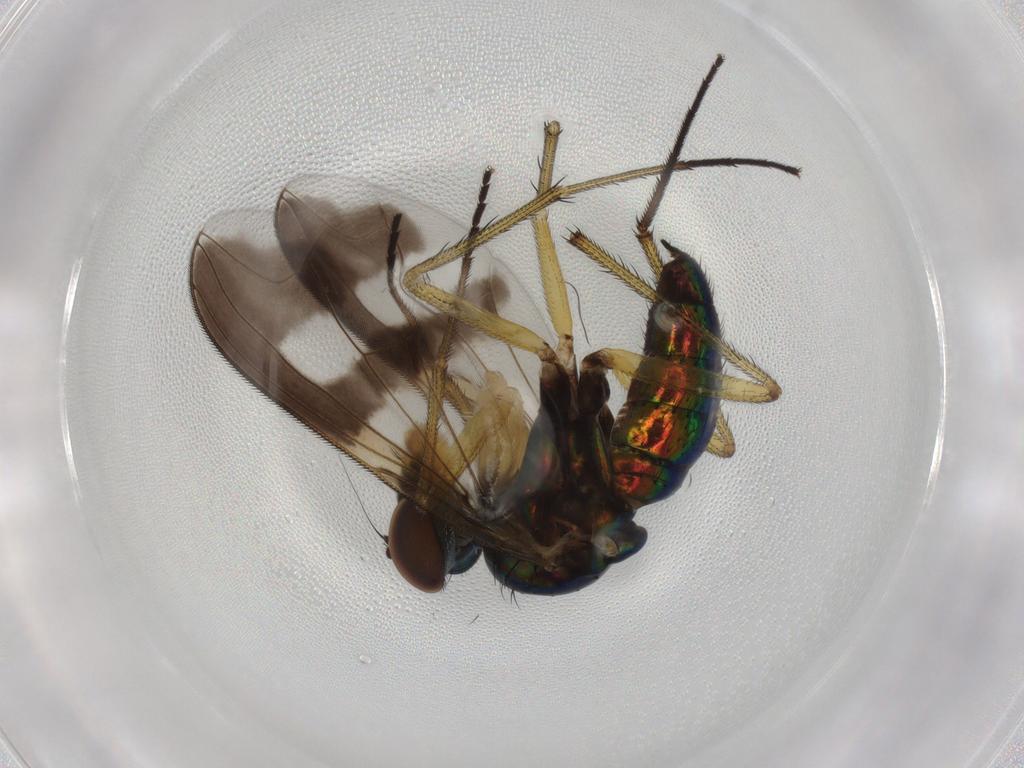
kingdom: Animalia
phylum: Arthropoda
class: Insecta
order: Diptera
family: Dolichopodidae
